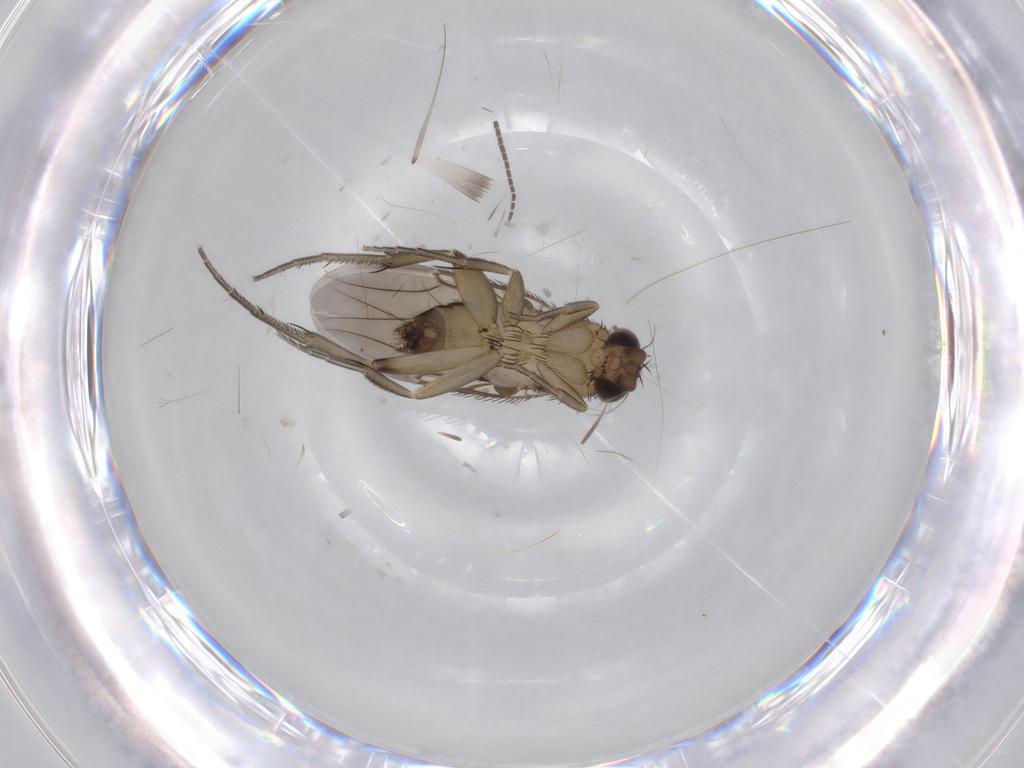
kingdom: Animalia
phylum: Arthropoda
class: Insecta
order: Diptera
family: Phoridae
